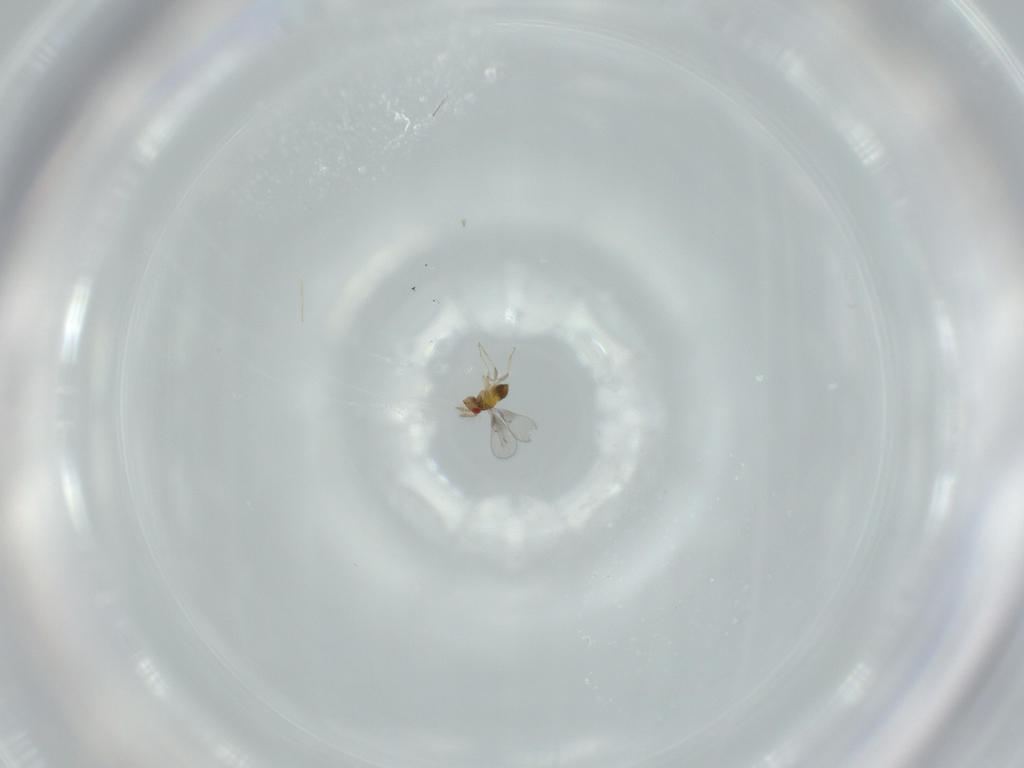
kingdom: Animalia
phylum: Arthropoda
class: Insecta
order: Hymenoptera
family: Trichogrammatidae
